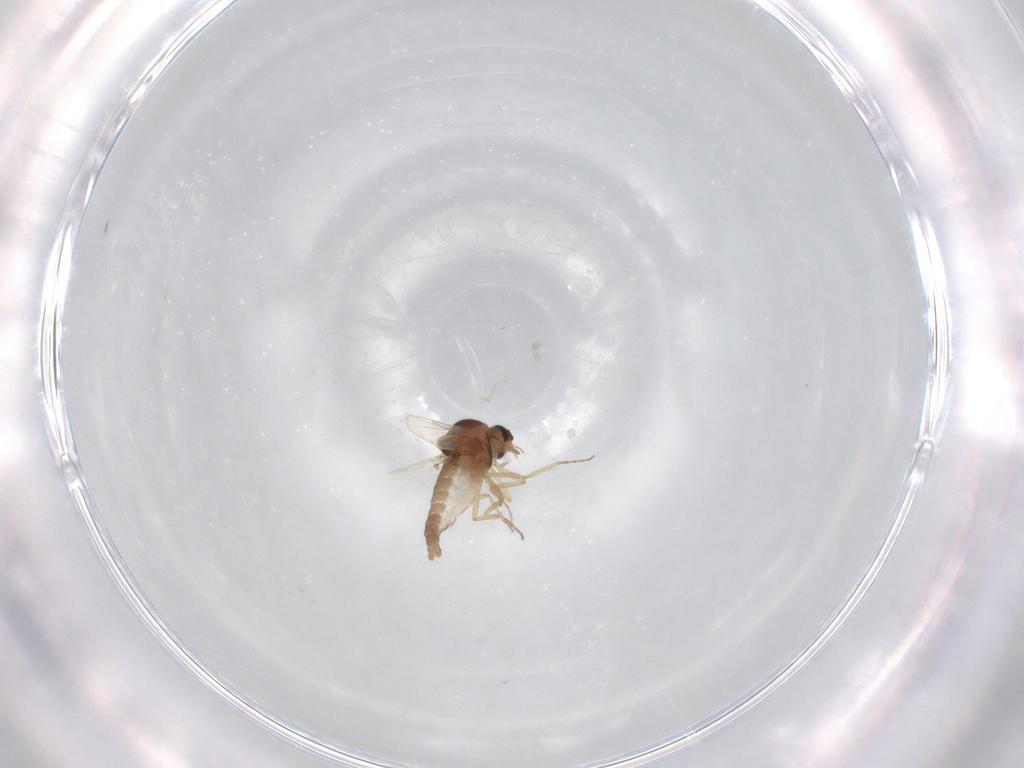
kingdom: Animalia
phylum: Arthropoda
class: Insecta
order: Diptera
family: Ceratopogonidae
